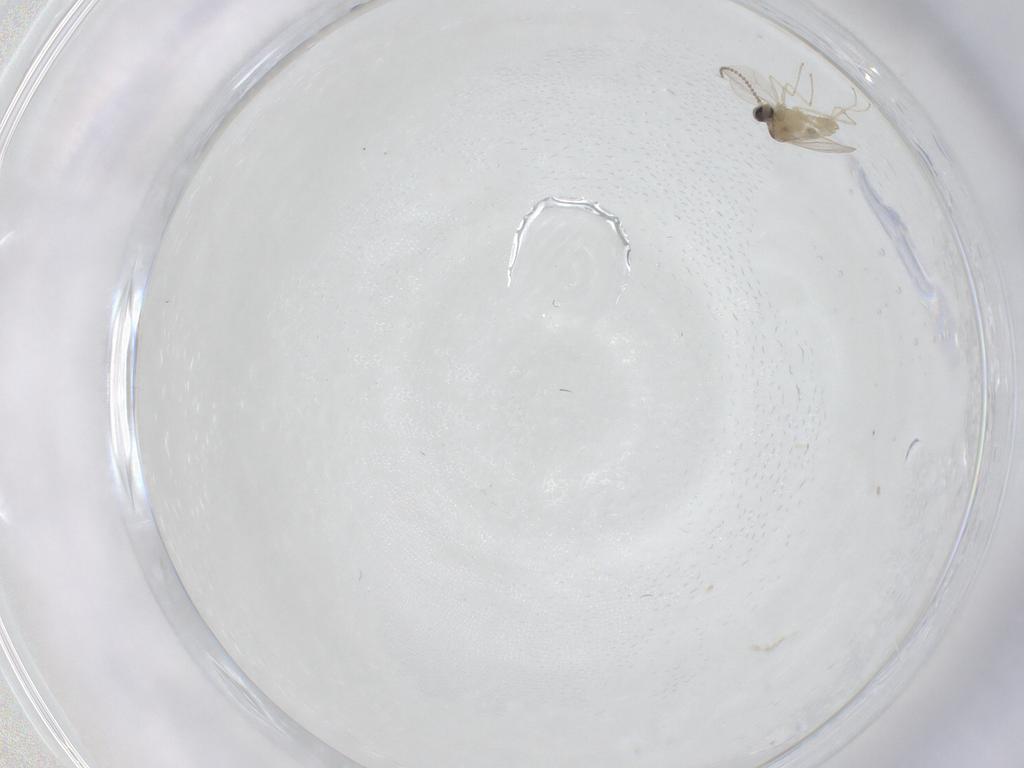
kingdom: Animalia
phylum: Arthropoda
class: Insecta
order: Diptera
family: Cecidomyiidae
